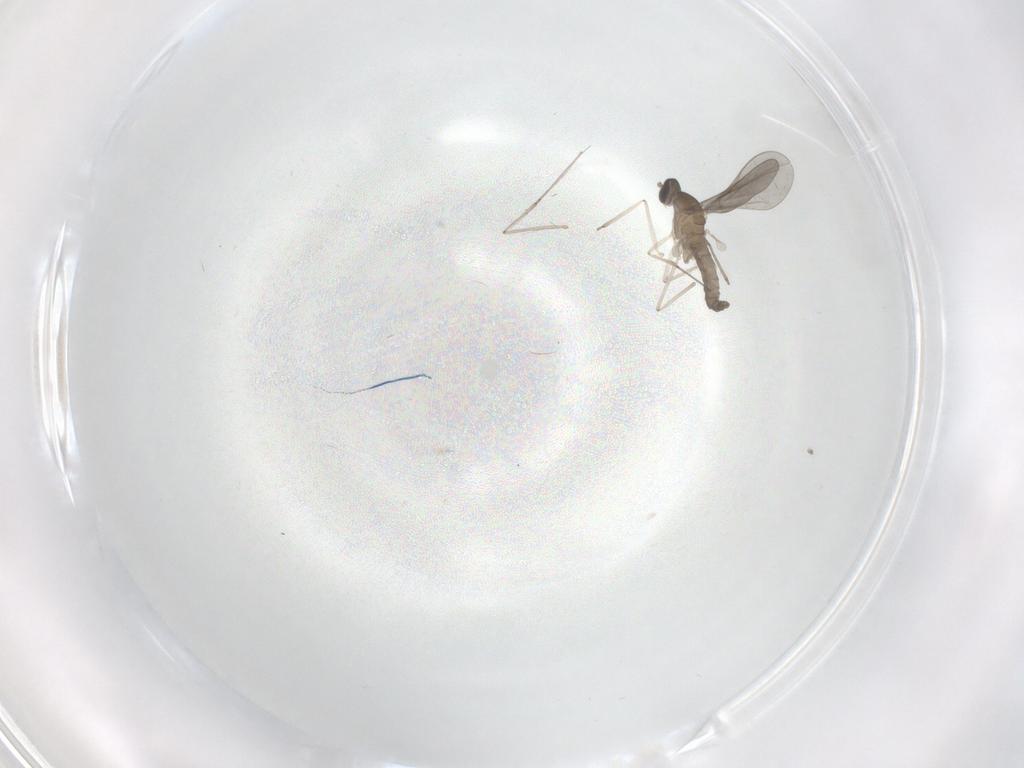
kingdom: Animalia
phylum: Arthropoda
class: Insecta
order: Diptera
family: Cecidomyiidae
